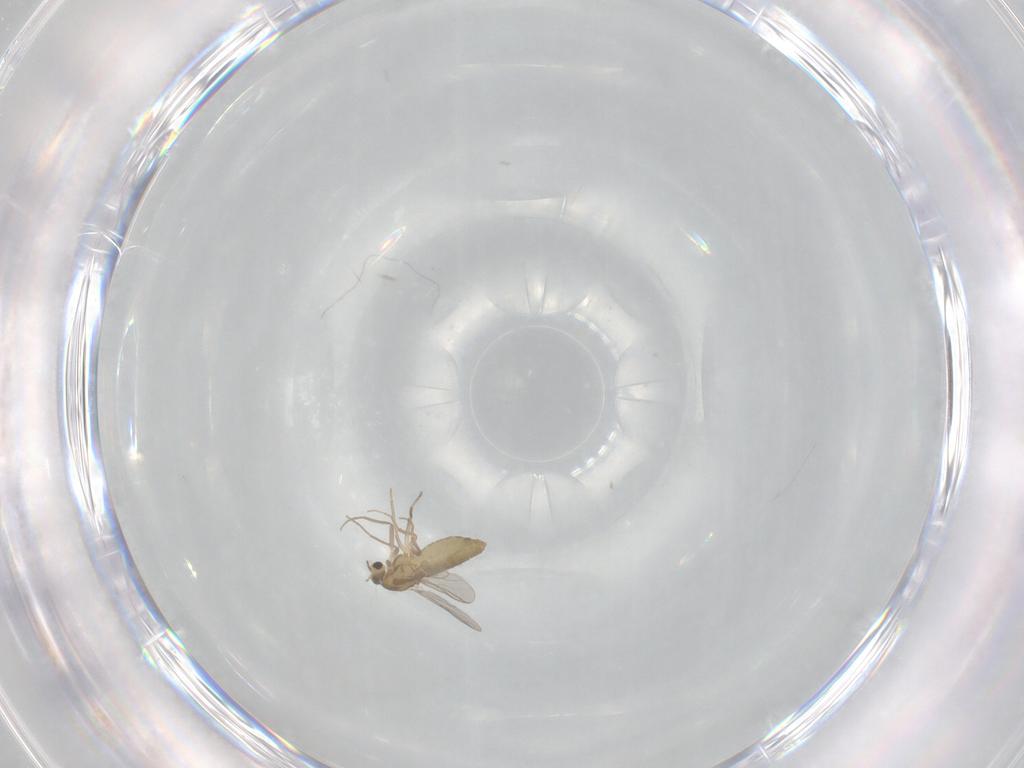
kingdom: Animalia
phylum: Arthropoda
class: Insecta
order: Diptera
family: Chironomidae
